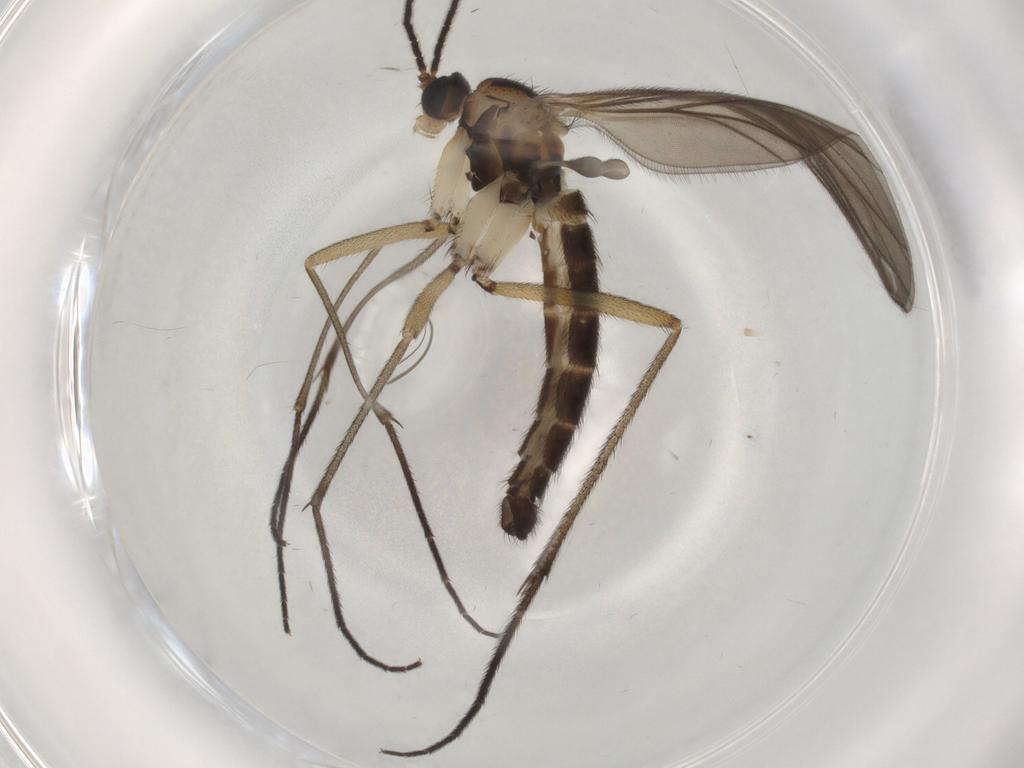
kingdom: Animalia
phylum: Arthropoda
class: Insecta
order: Diptera
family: Sciaridae
